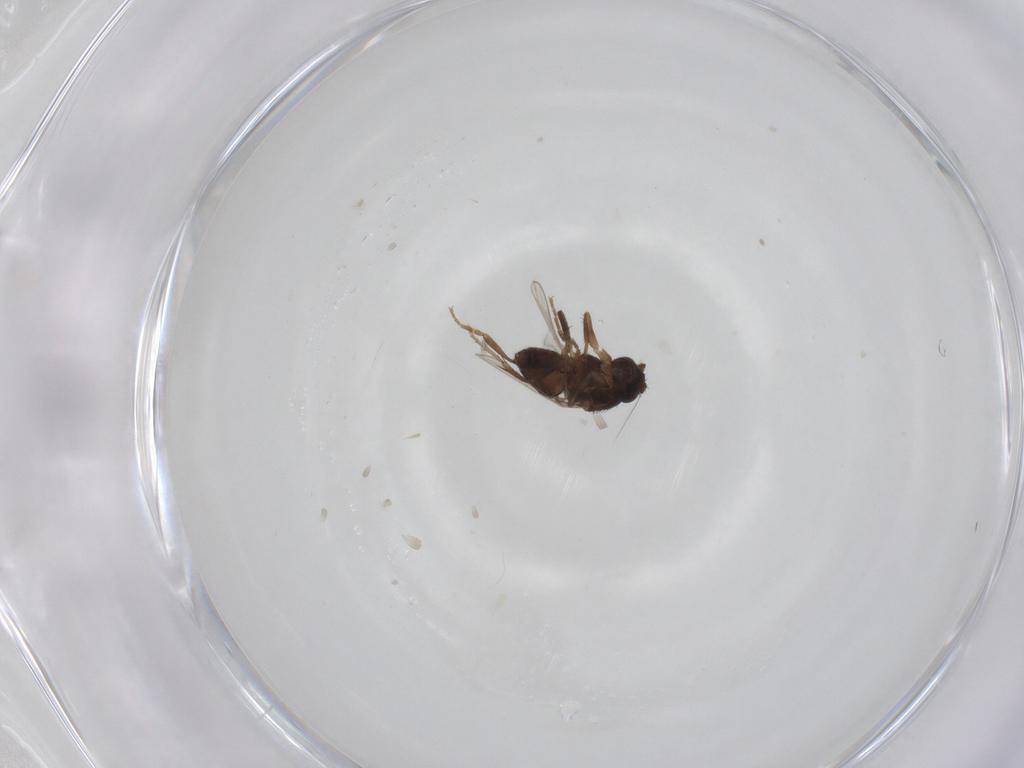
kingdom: Animalia
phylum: Arthropoda
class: Insecta
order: Diptera
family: Sphaeroceridae
